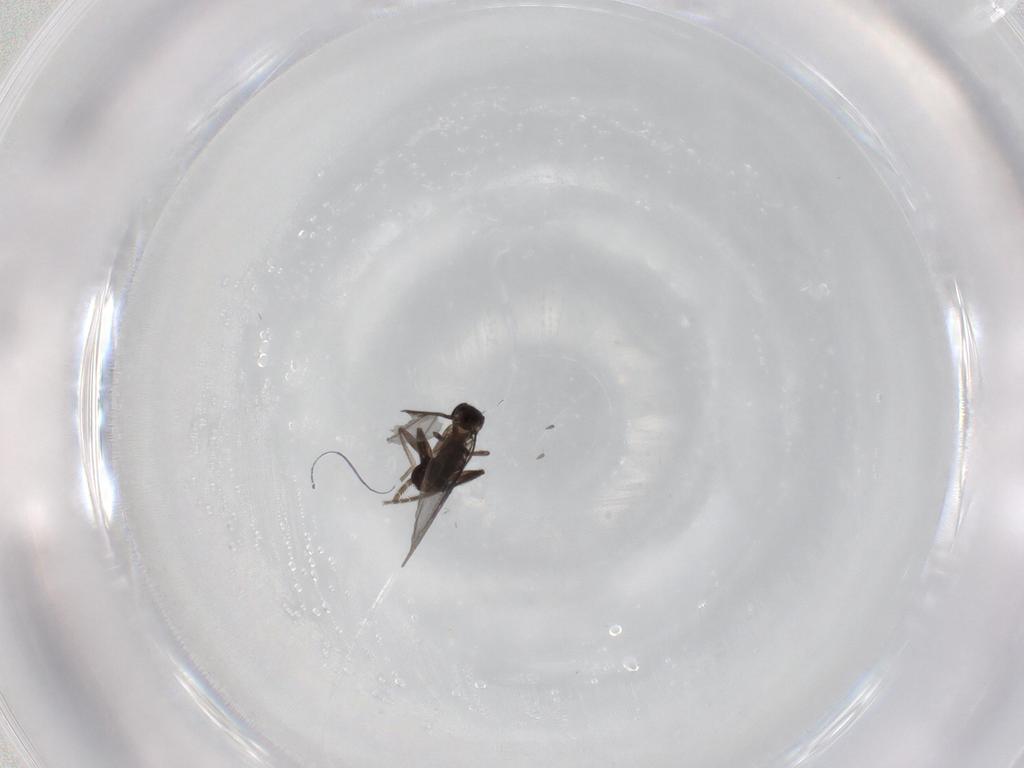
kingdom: Animalia
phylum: Arthropoda
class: Insecta
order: Diptera
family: Phoridae
